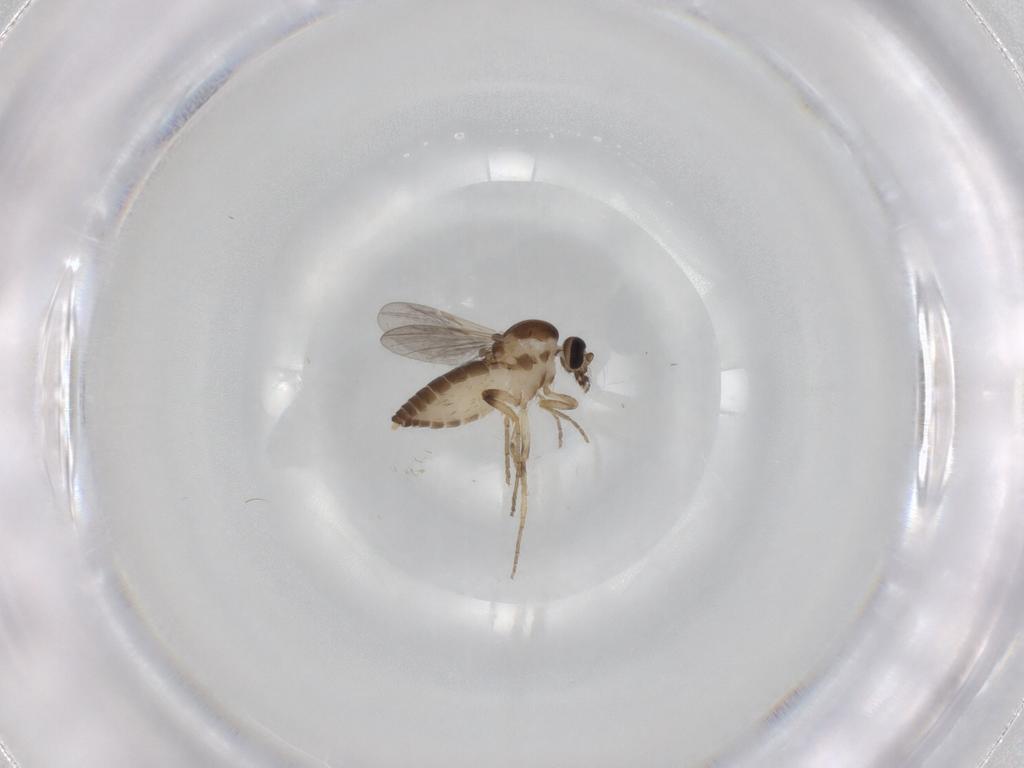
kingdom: Animalia
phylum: Arthropoda
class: Insecta
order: Diptera
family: Ceratopogonidae
